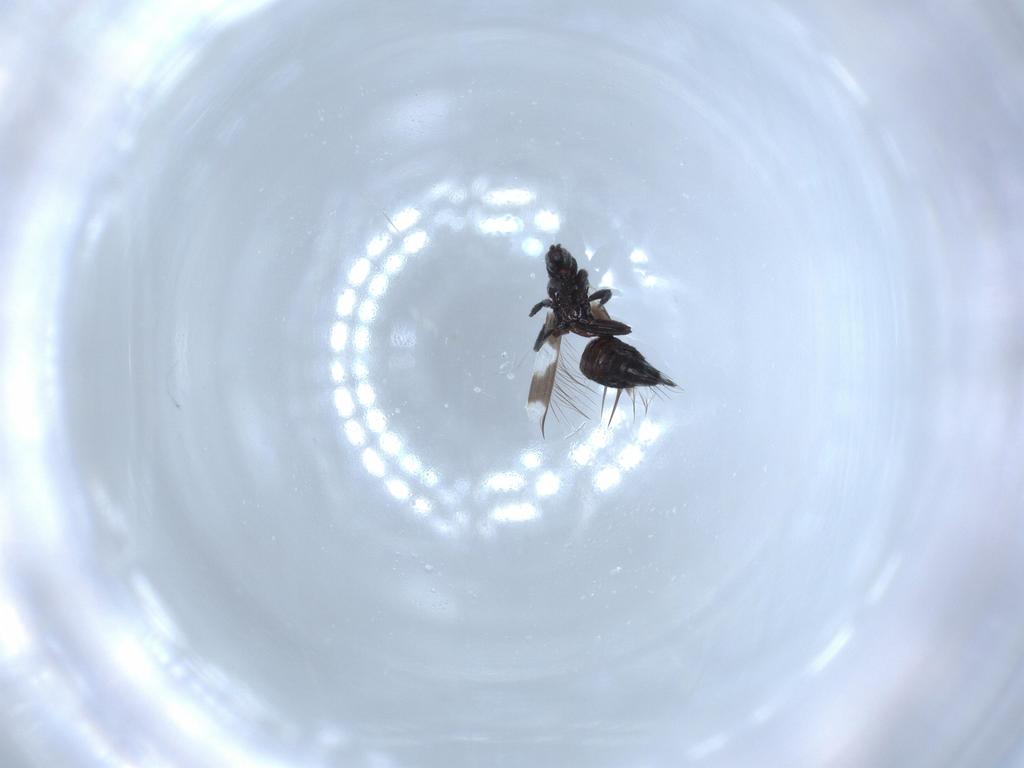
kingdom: Animalia
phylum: Arthropoda
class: Insecta
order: Thysanoptera
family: Aeolothripidae
